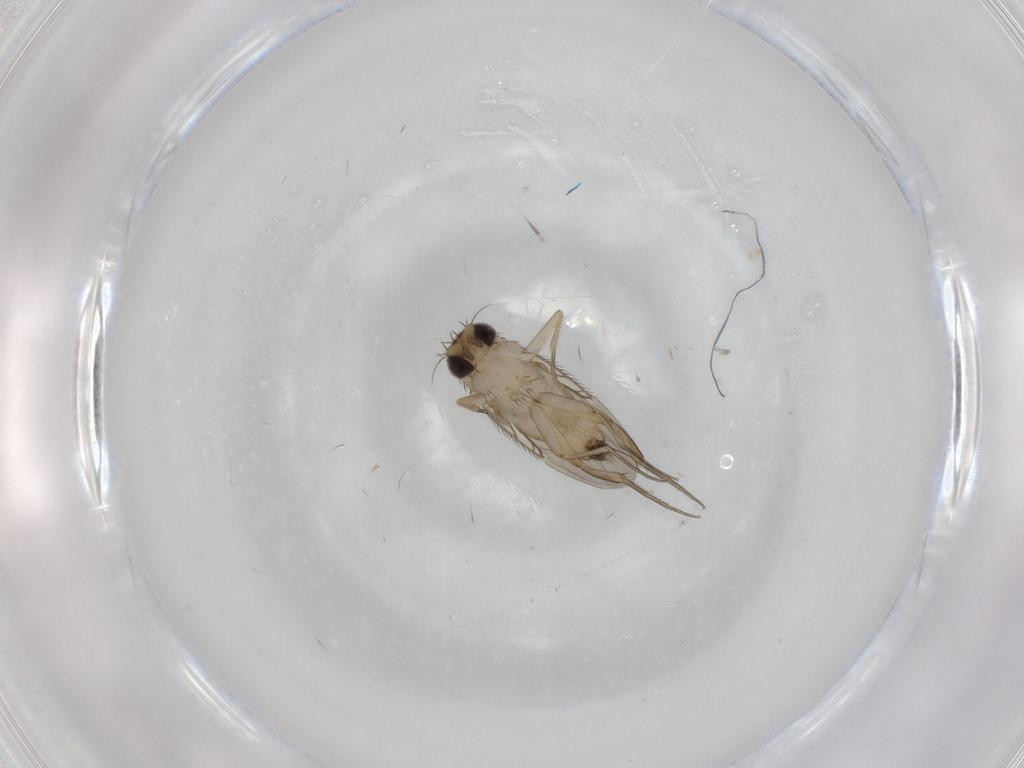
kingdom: Animalia
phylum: Arthropoda
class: Insecta
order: Diptera
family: Phoridae
